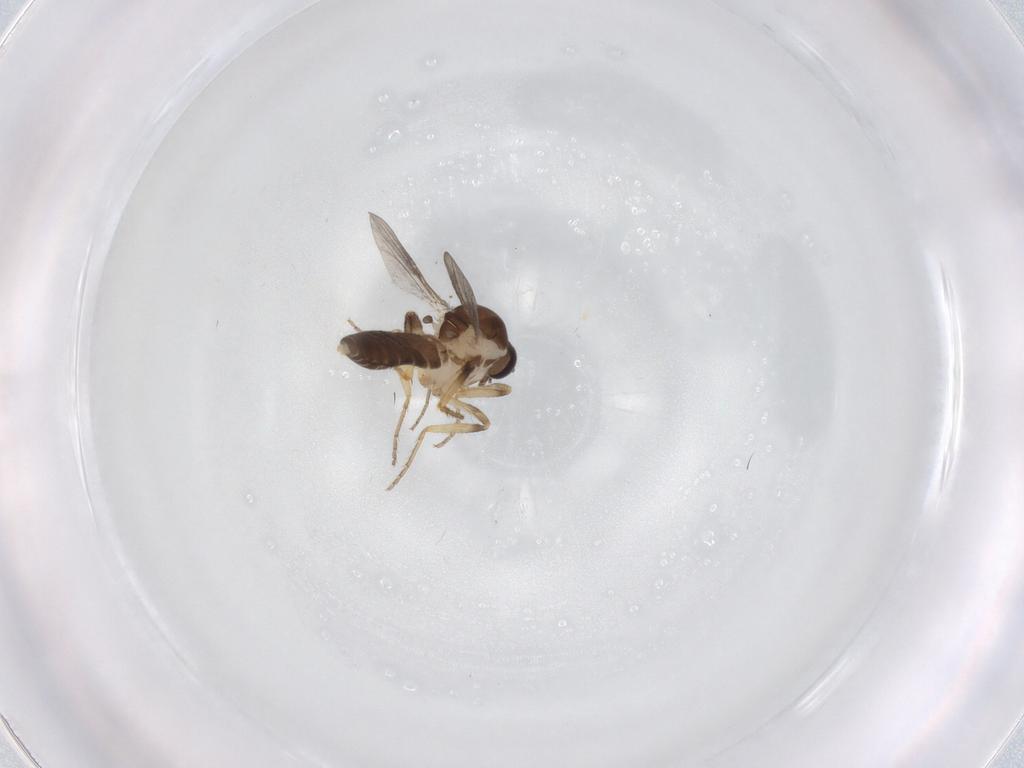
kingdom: Animalia
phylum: Arthropoda
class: Insecta
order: Diptera
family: Ceratopogonidae
